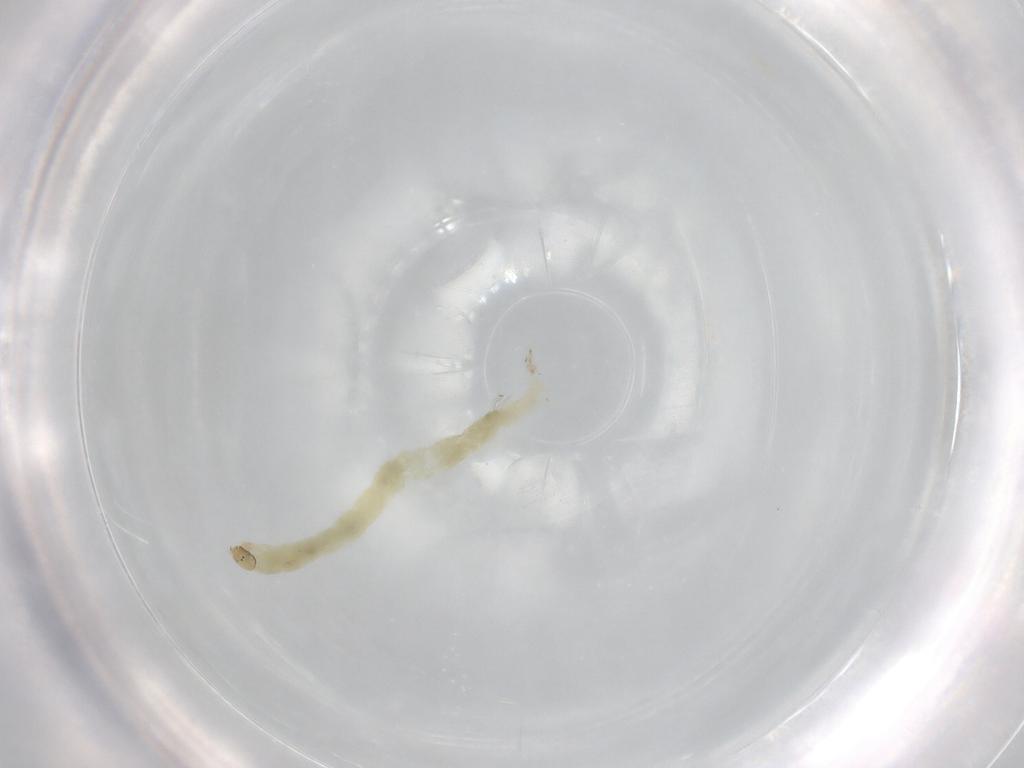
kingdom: Animalia
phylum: Arthropoda
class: Insecta
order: Diptera
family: Chironomidae
